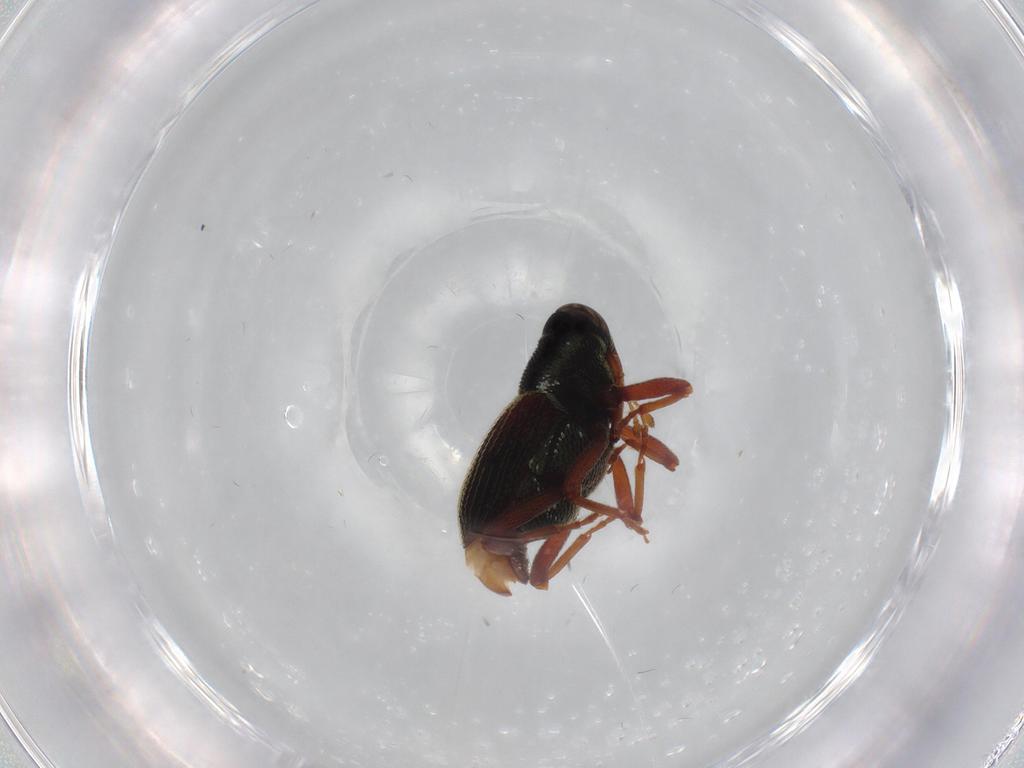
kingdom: Animalia
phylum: Arthropoda
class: Insecta
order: Coleoptera
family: Curculionidae
